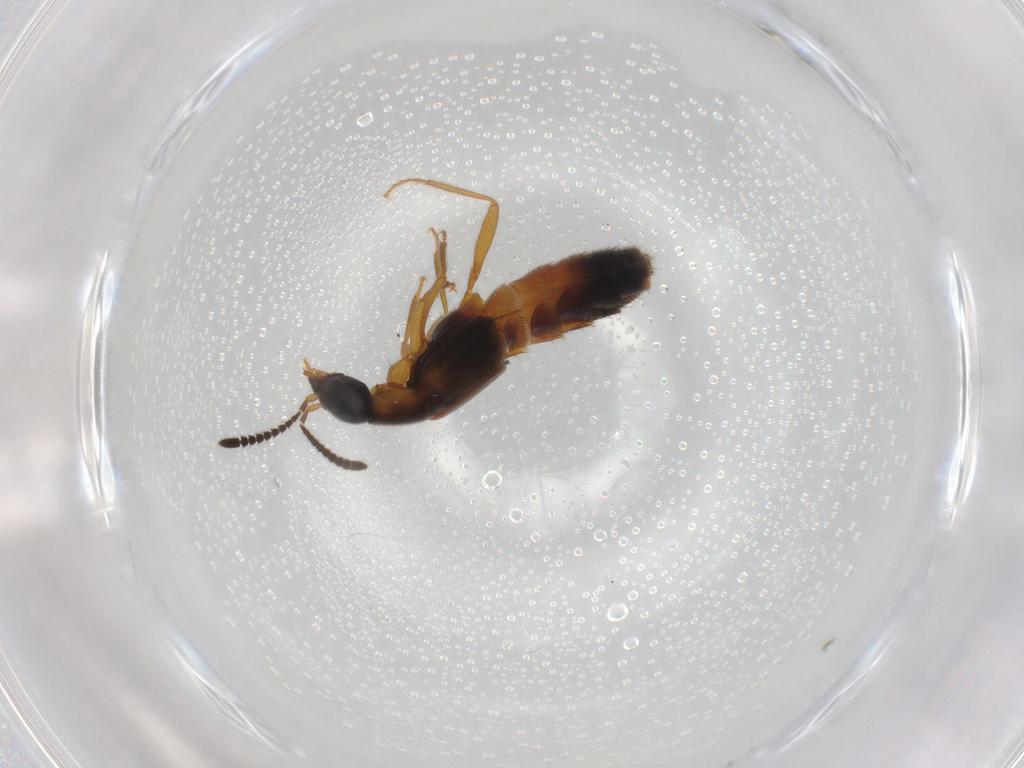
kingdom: Animalia
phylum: Arthropoda
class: Insecta
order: Coleoptera
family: Staphylinidae
